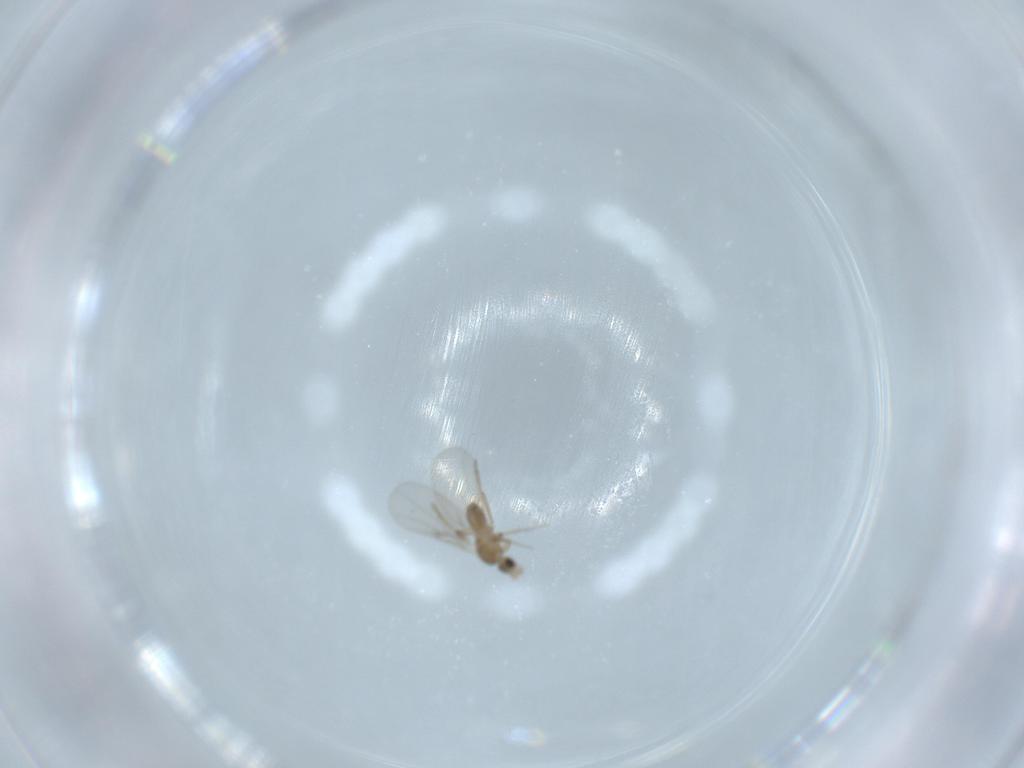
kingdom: Animalia
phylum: Arthropoda
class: Insecta
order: Diptera
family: Phoridae
